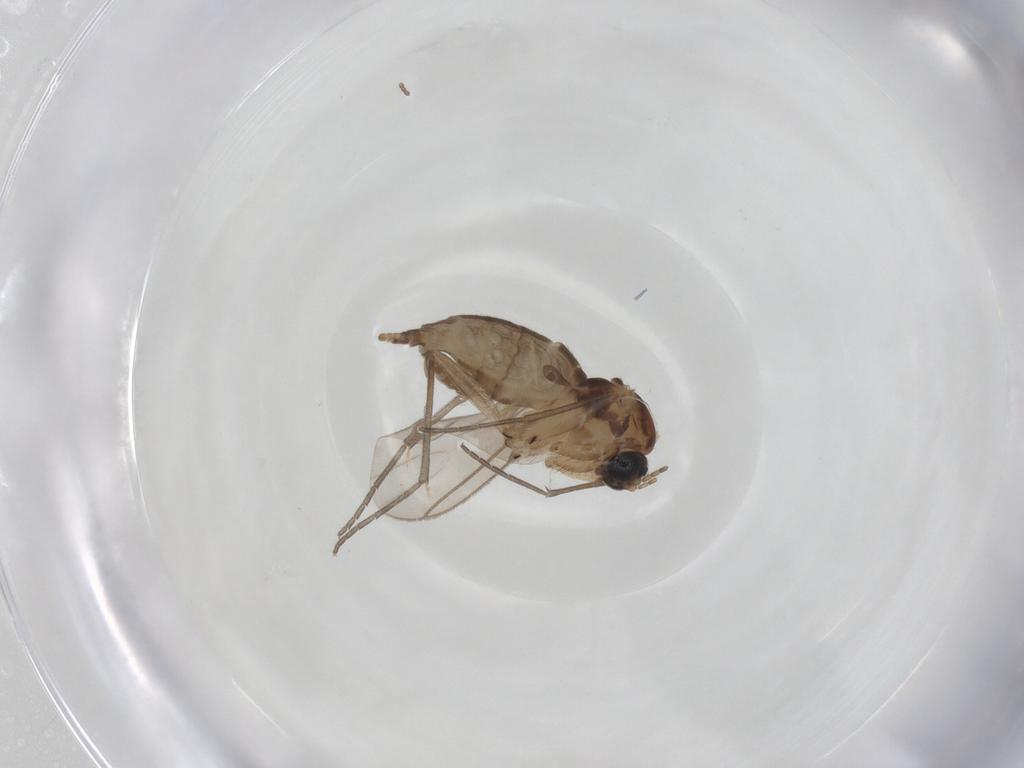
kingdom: Animalia
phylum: Arthropoda
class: Insecta
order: Diptera
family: Sciaridae
